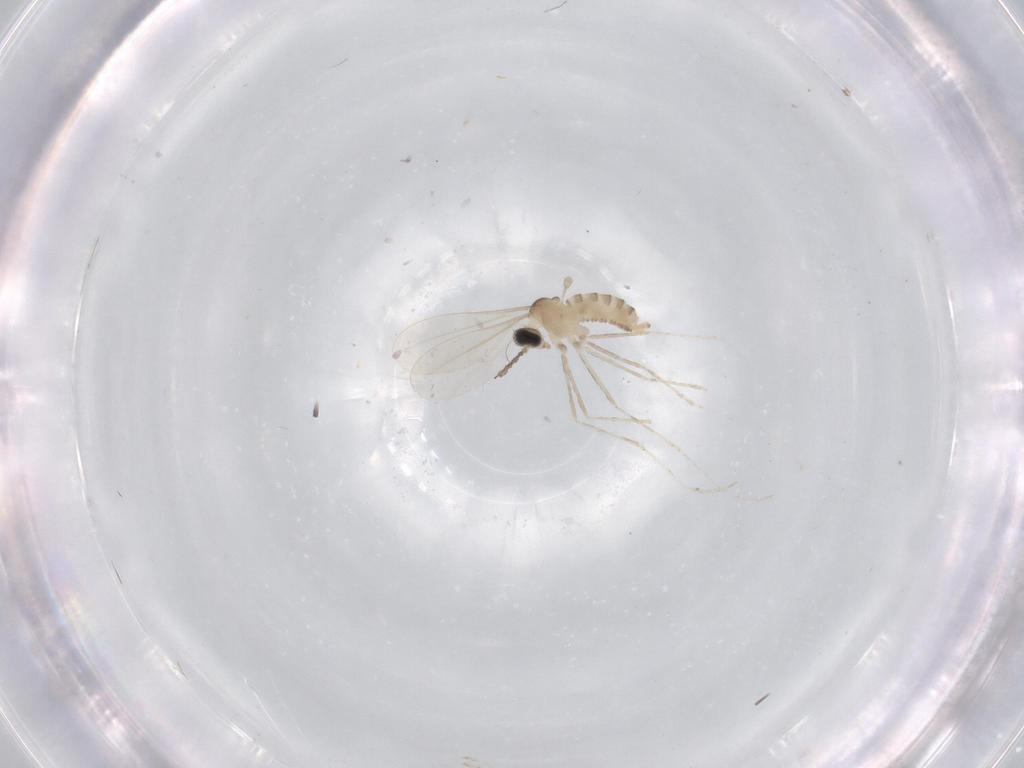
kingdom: Animalia
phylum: Arthropoda
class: Insecta
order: Diptera
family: Cecidomyiidae
